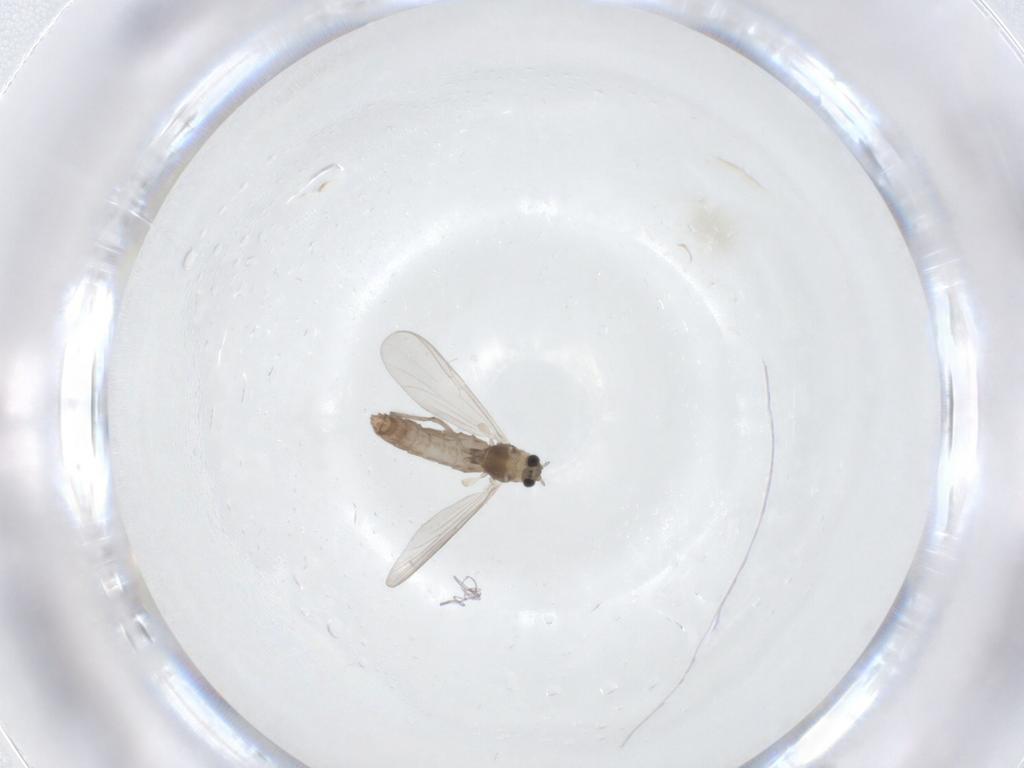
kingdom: Animalia
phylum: Arthropoda
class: Insecta
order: Diptera
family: Chironomidae
